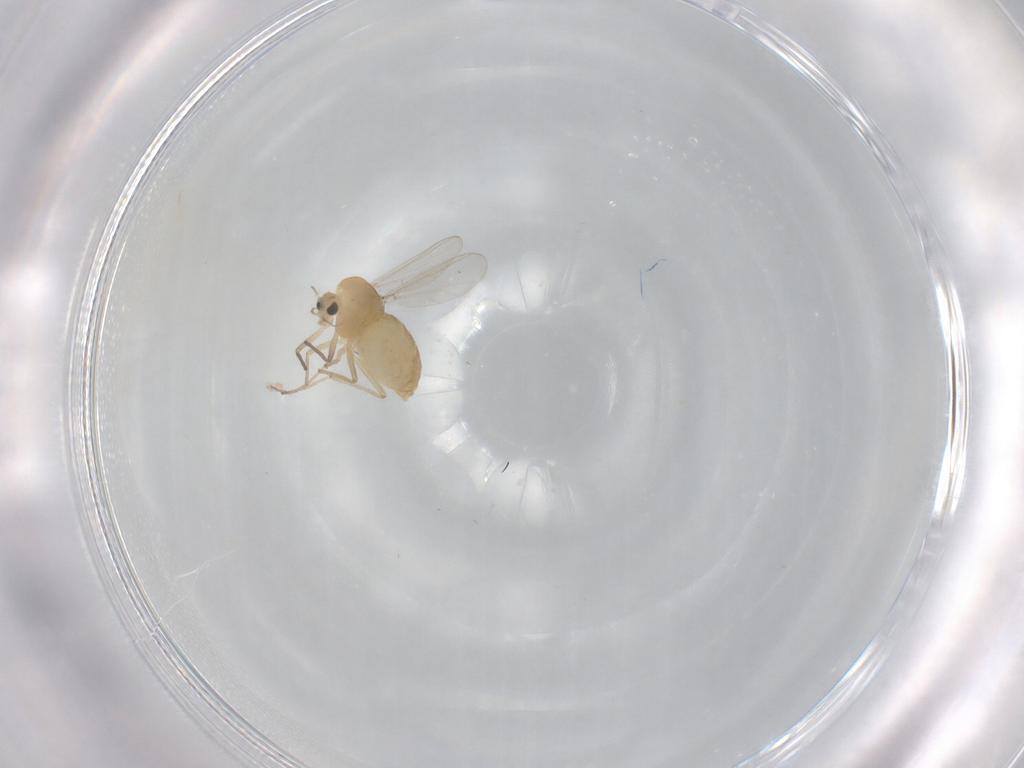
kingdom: Animalia
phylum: Arthropoda
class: Insecta
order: Diptera
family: Chironomidae
